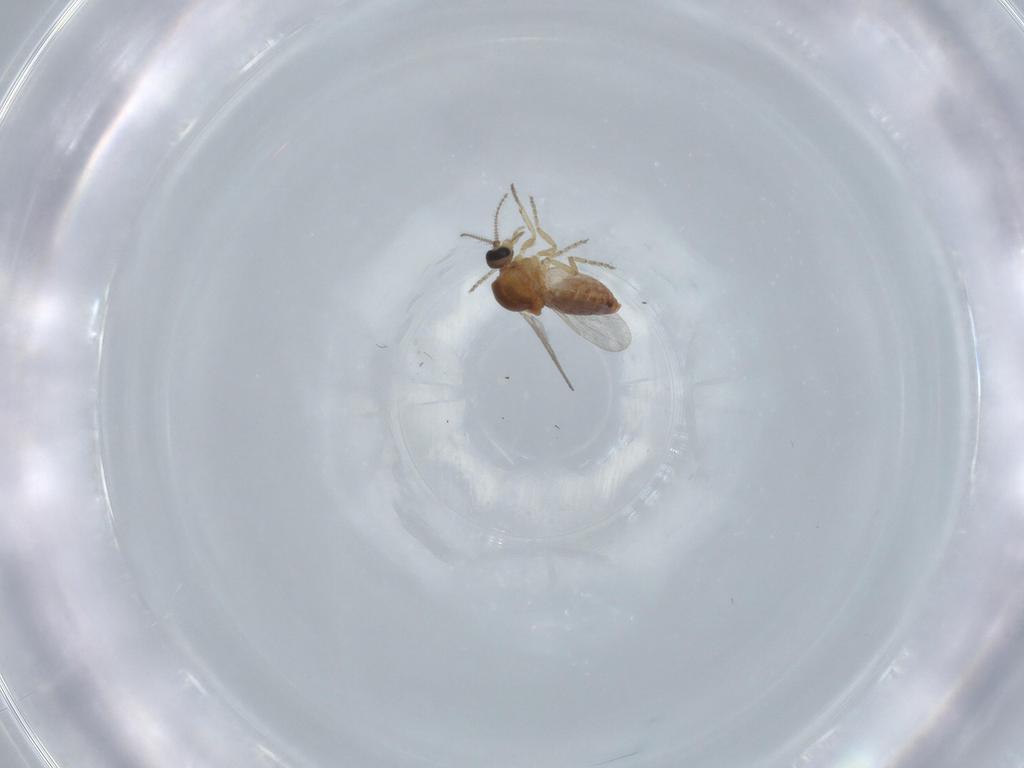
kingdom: Animalia
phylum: Arthropoda
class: Insecta
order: Diptera
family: Ceratopogonidae
